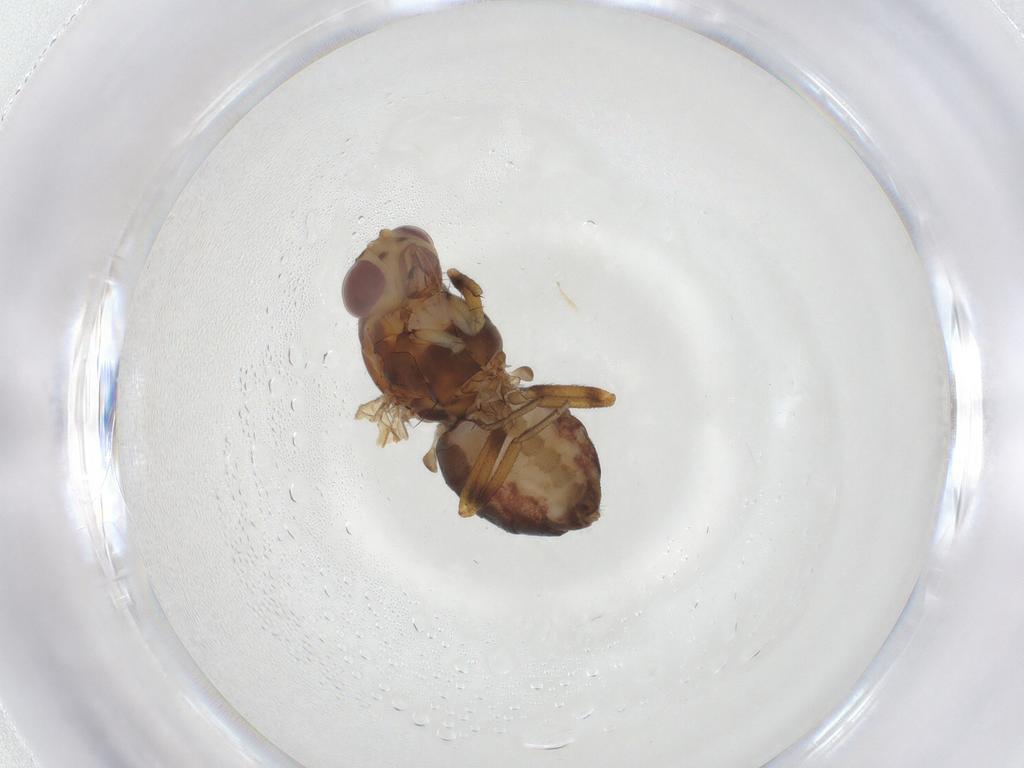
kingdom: Animalia
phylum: Arthropoda
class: Insecta
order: Diptera
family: Lauxaniidae
